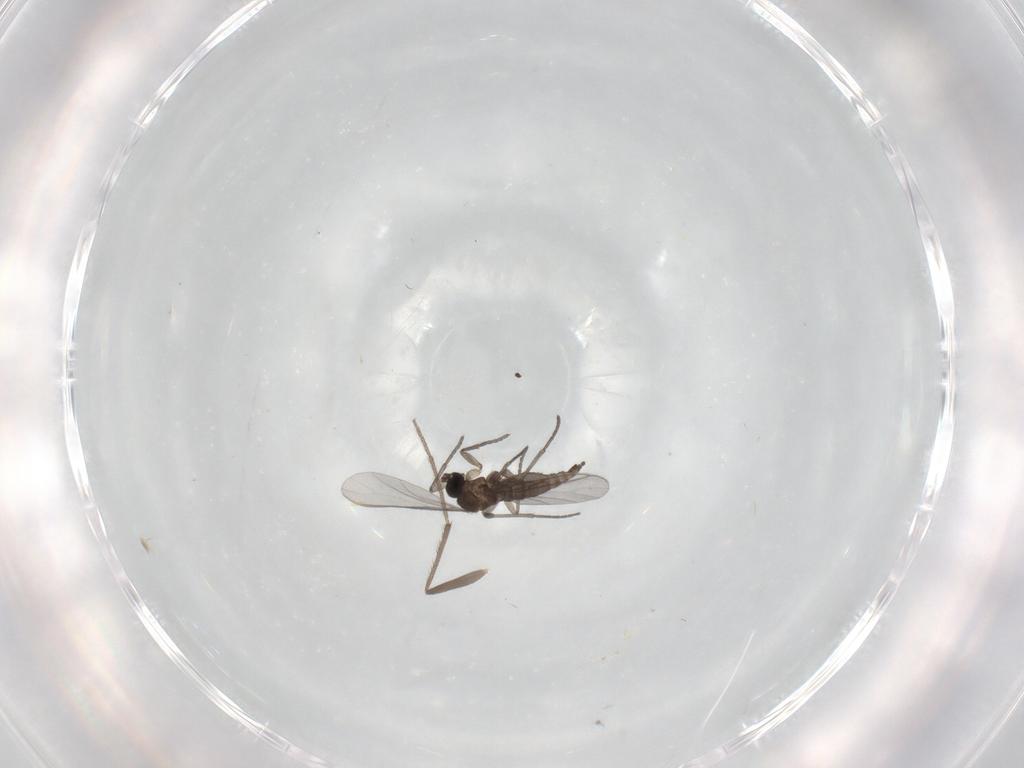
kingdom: Animalia
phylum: Arthropoda
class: Insecta
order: Diptera
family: Chironomidae
